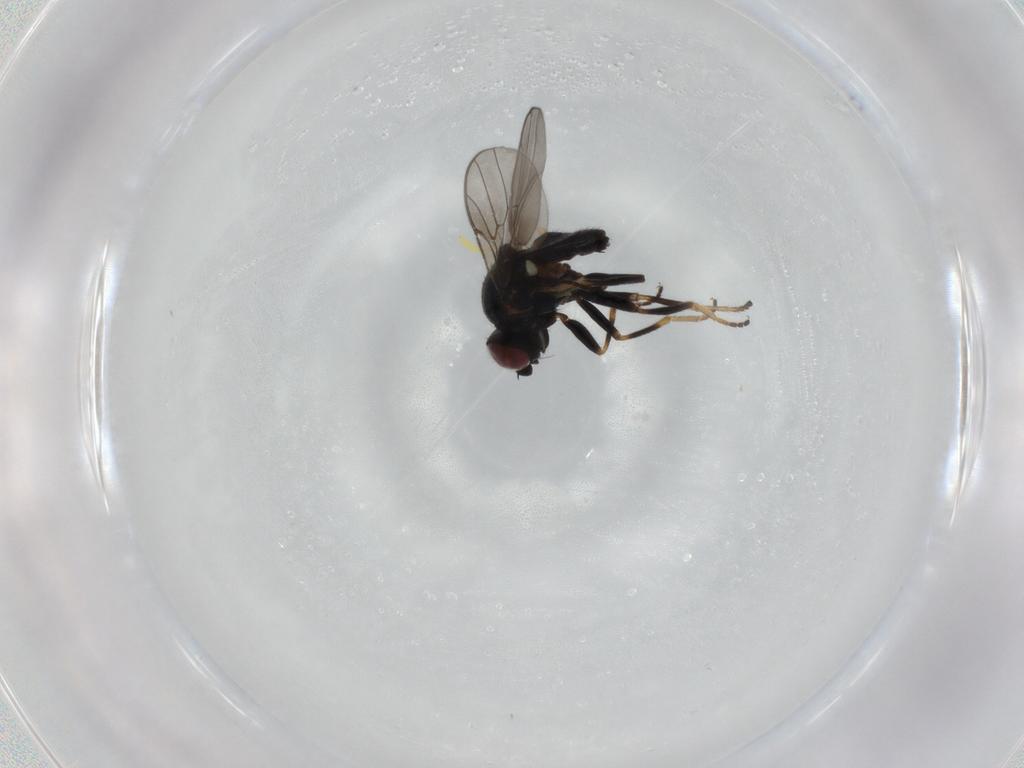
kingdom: Animalia
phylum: Arthropoda
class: Insecta
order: Diptera
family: Chloropidae
